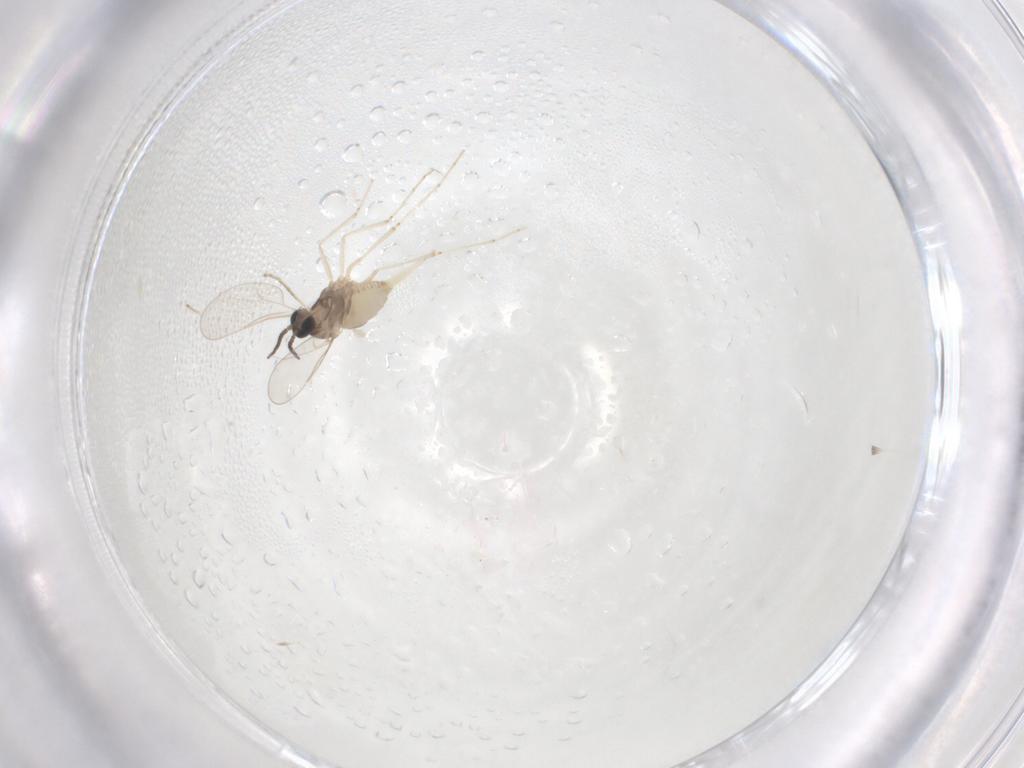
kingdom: Animalia
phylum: Arthropoda
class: Insecta
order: Diptera
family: Cecidomyiidae
